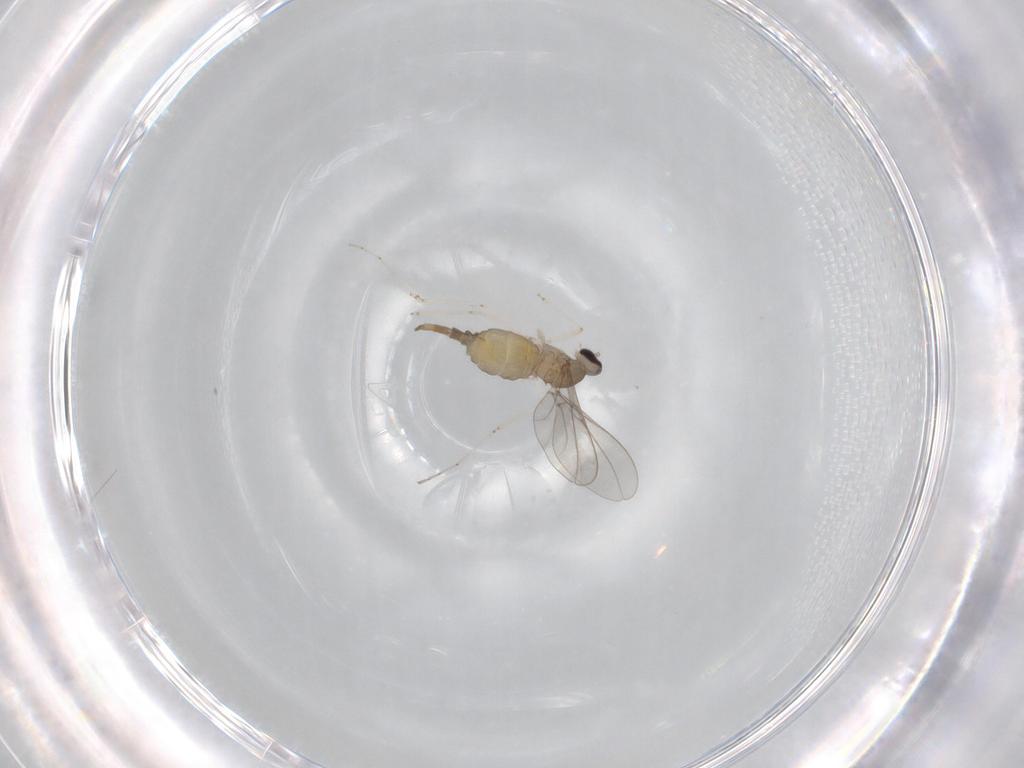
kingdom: Animalia
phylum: Arthropoda
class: Insecta
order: Diptera
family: Cecidomyiidae
